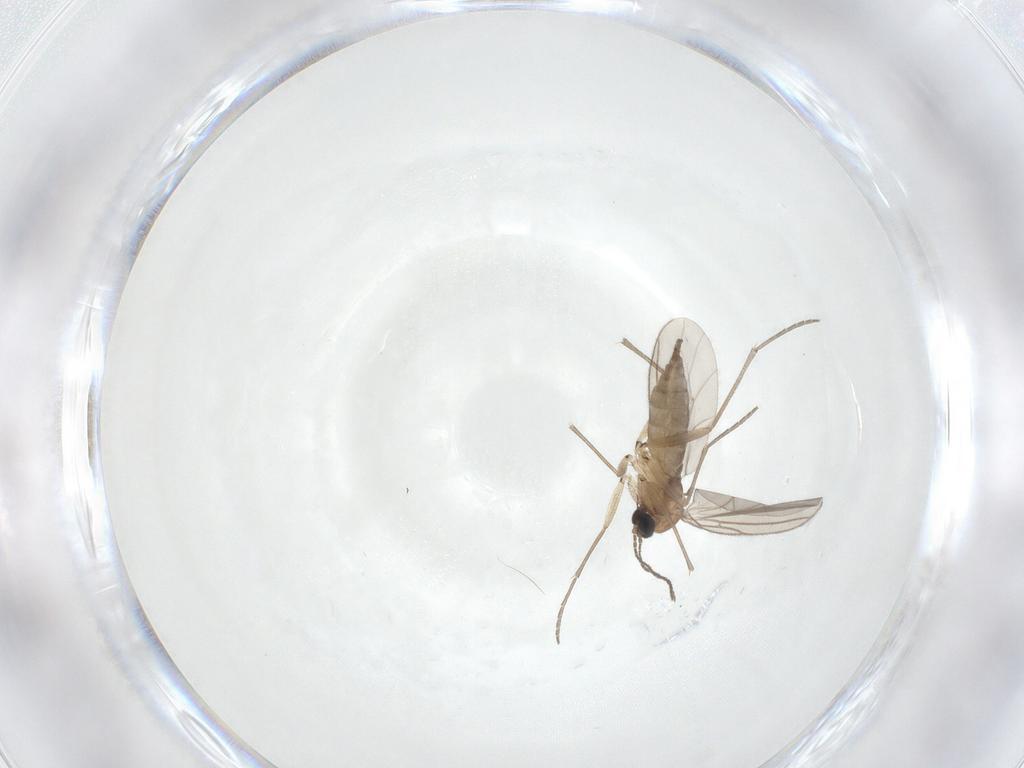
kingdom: Animalia
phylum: Arthropoda
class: Insecta
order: Diptera
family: Sciaridae
